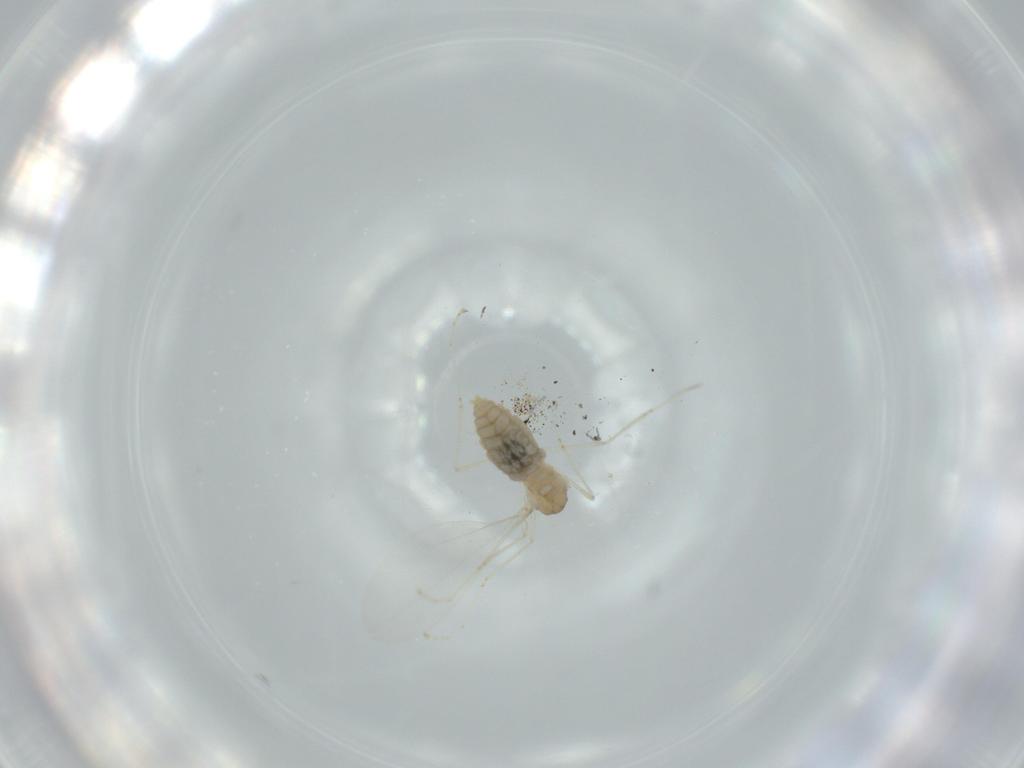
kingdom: Animalia
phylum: Arthropoda
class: Insecta
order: Diptera
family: Cecidomyiidae
